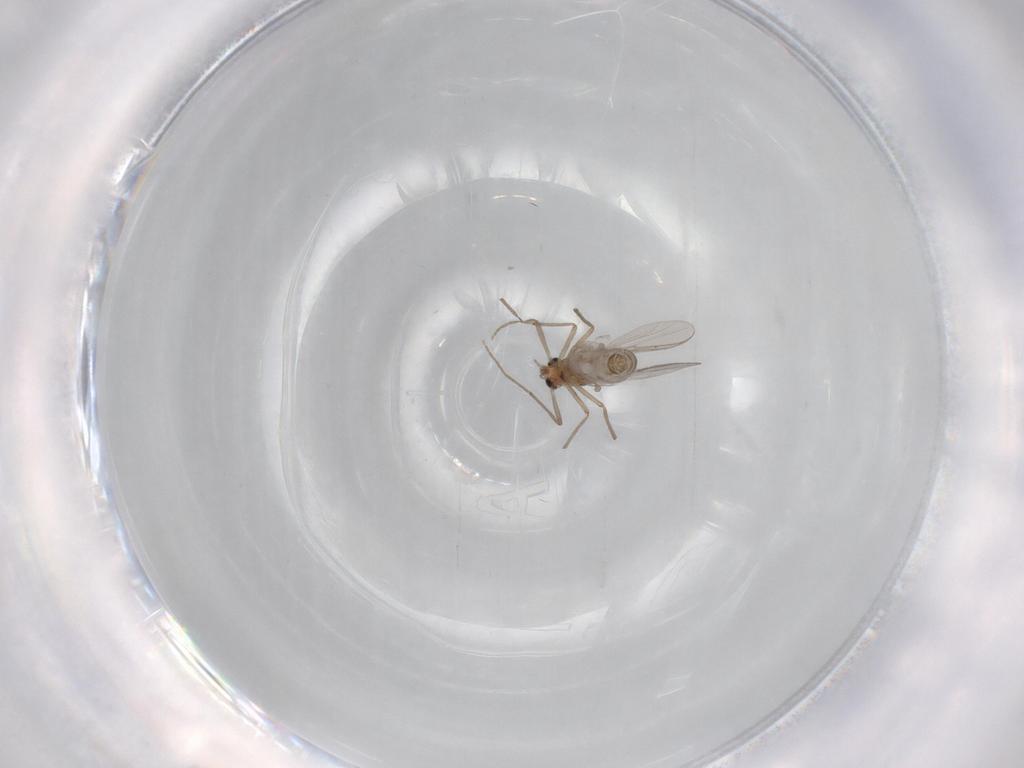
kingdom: Animalia
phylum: Arthropoda
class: Insecta
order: Diptera
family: Chironomidae
